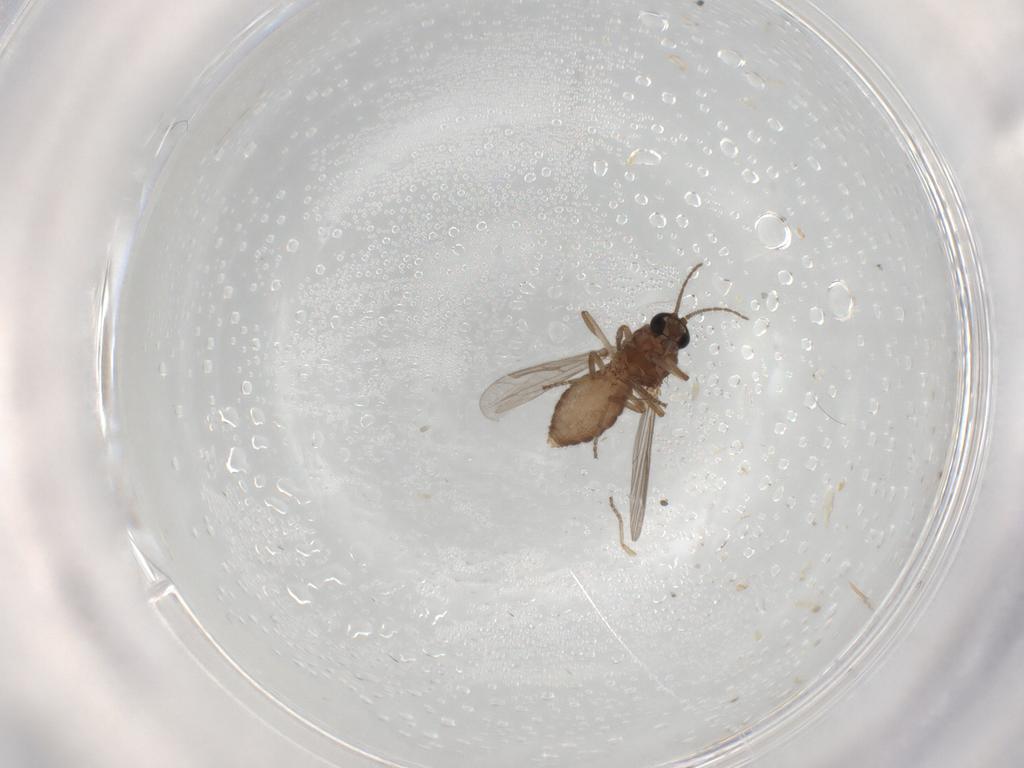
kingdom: Animalia
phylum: Arthropoda
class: Insecta
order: Diptera
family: Ceratopogonidae
